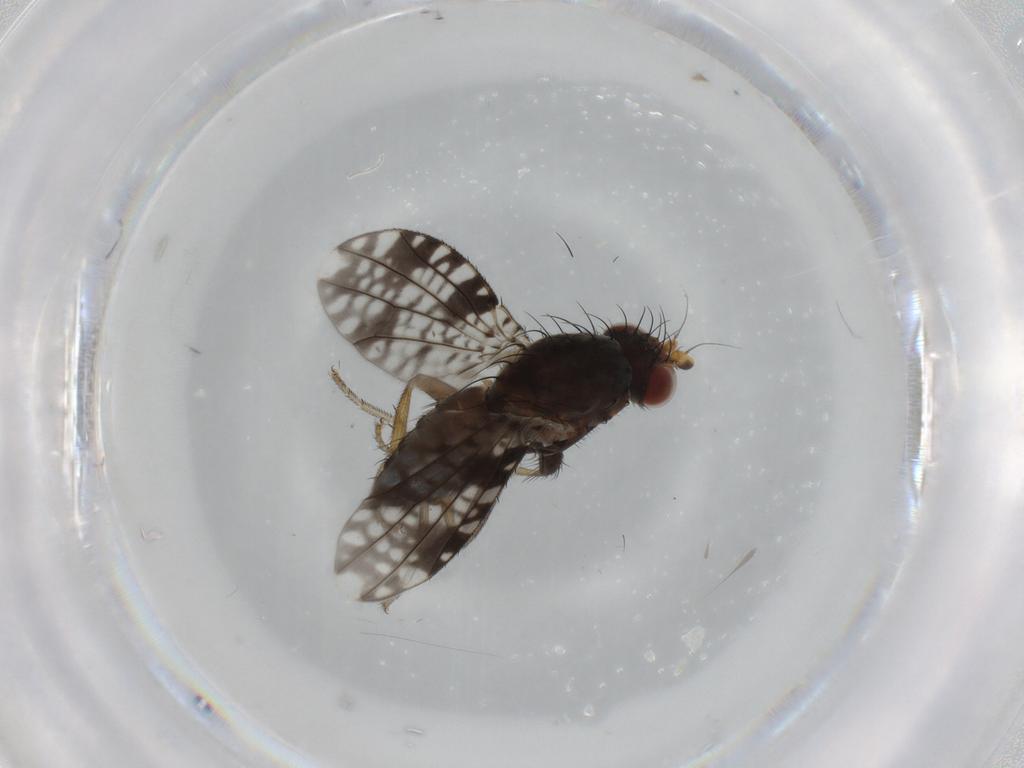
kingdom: Animalia
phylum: Arthropoda
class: Insecta
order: Diptera
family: Tephritidae
